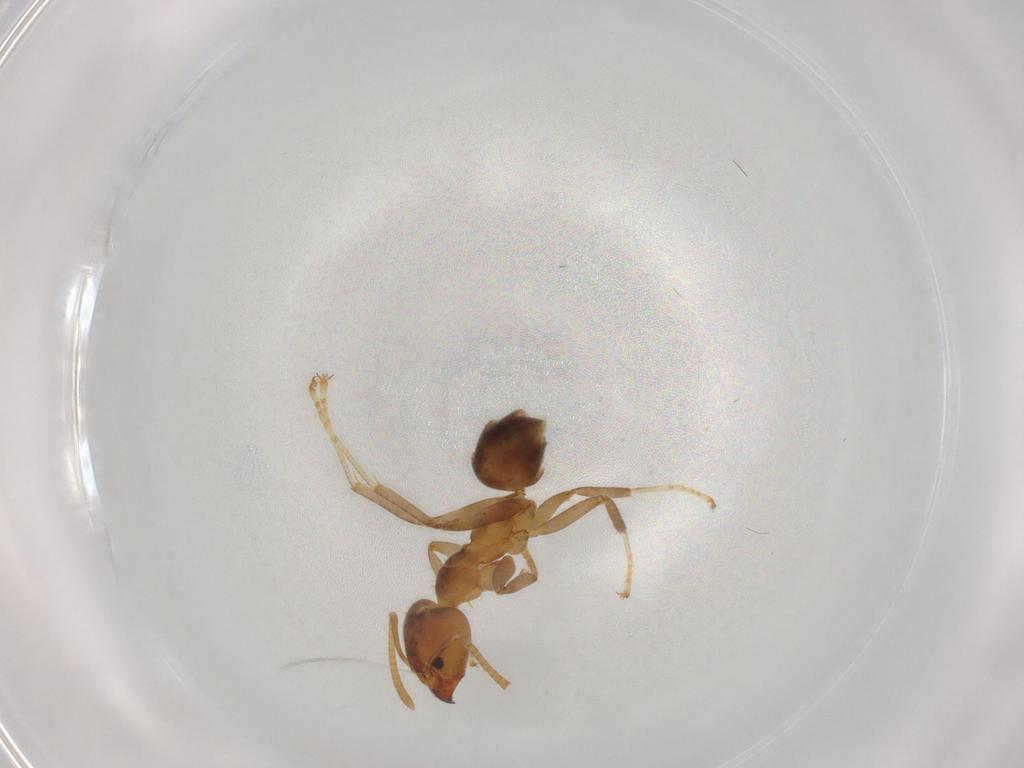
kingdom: Animalia
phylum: Arthropoda
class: Insecta
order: Hymenoptera
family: Formicidae
